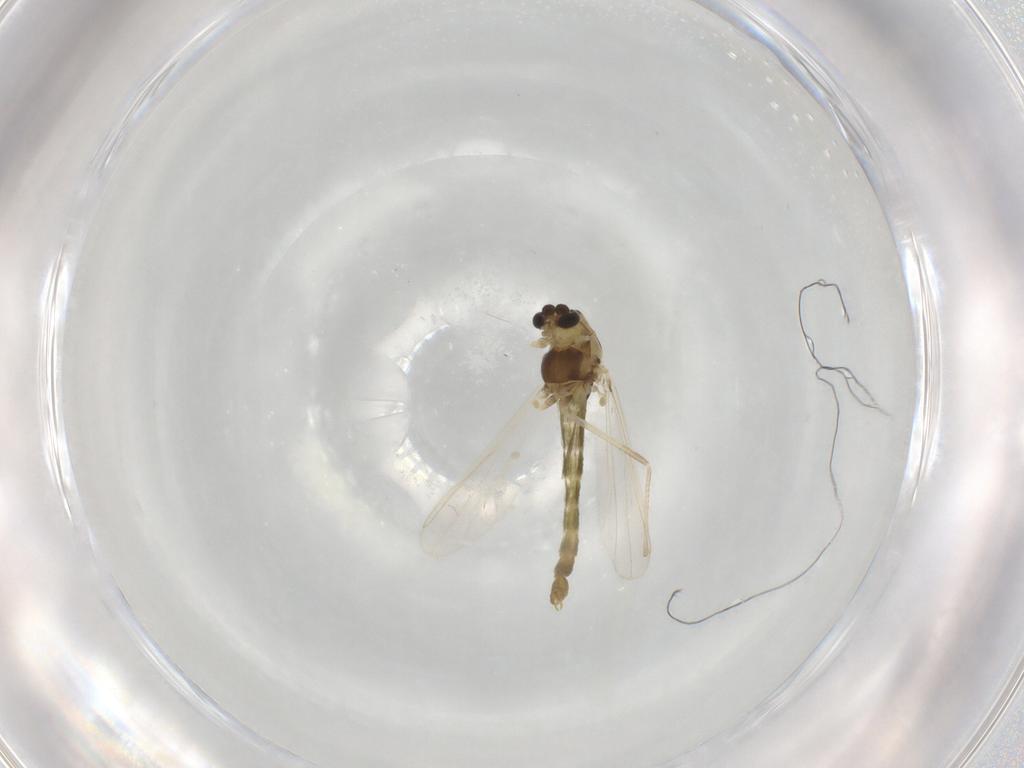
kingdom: Animalia
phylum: Arthropoda
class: Insecta
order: Diptera
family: Chironomidae
